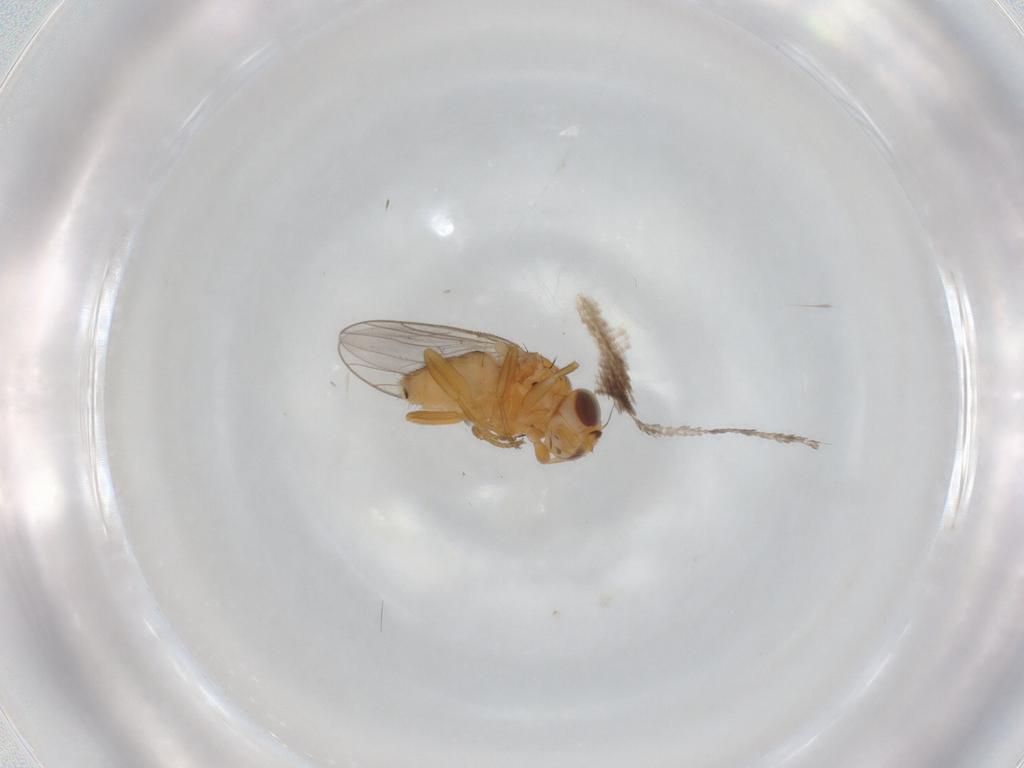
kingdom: Animalia
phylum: Arthropoda
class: Insecta
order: Diptera
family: Chloropidae
